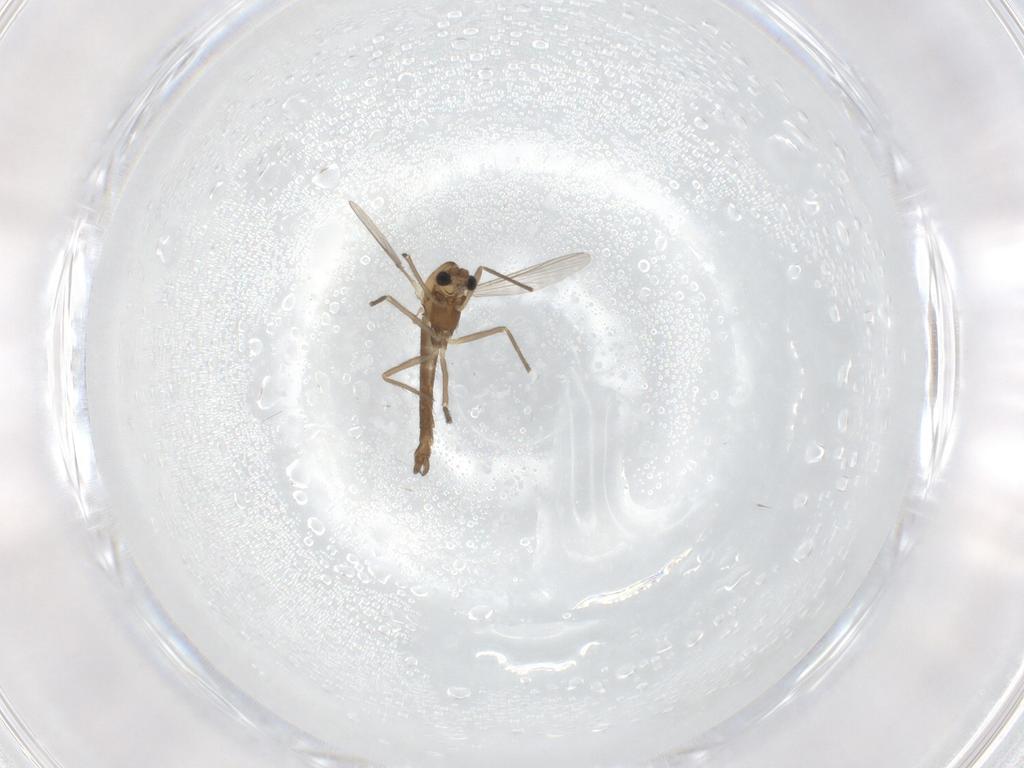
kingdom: Animalia
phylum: Arthropoda
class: Insecta
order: Diptera
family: Chironomidae
